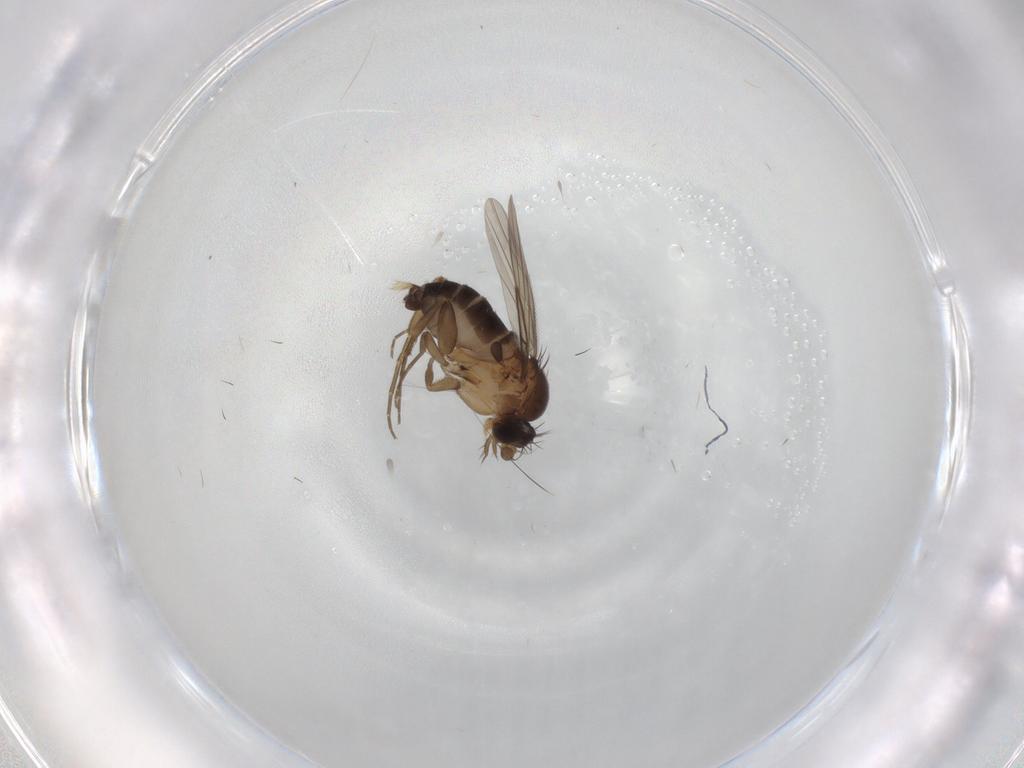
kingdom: Animalia
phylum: Arthropoda
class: Insecta
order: Diptera
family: Phoridae
